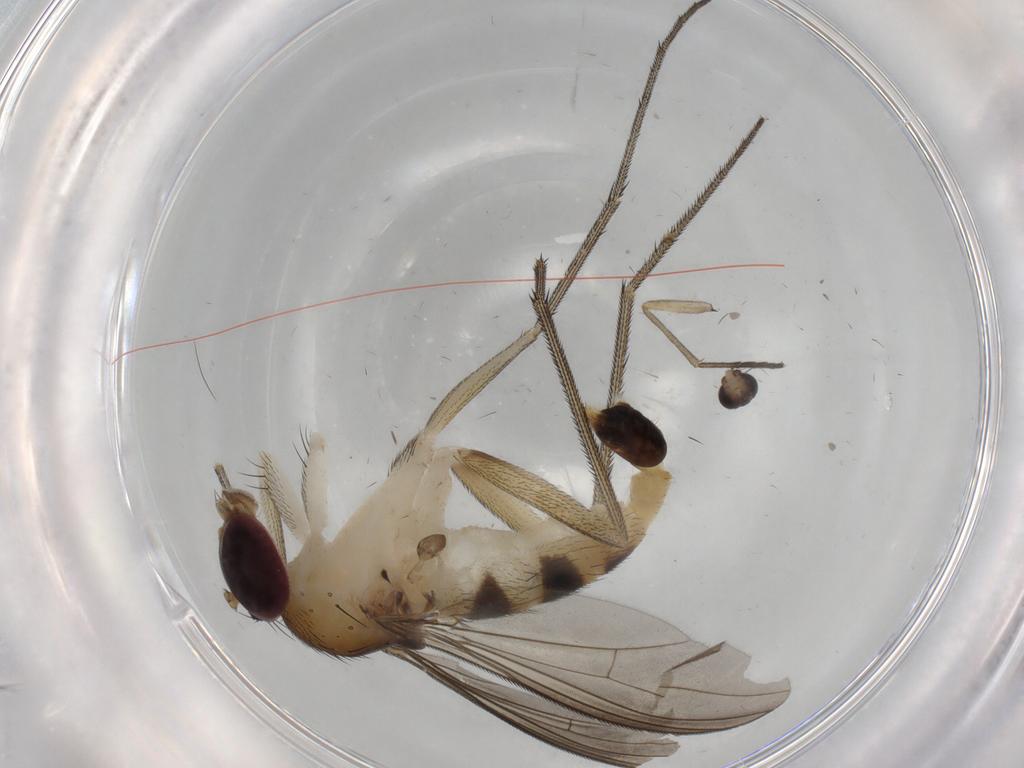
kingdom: Animalia
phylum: Arthropoda
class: Insecta
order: Diptera
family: Dolichopodidae
